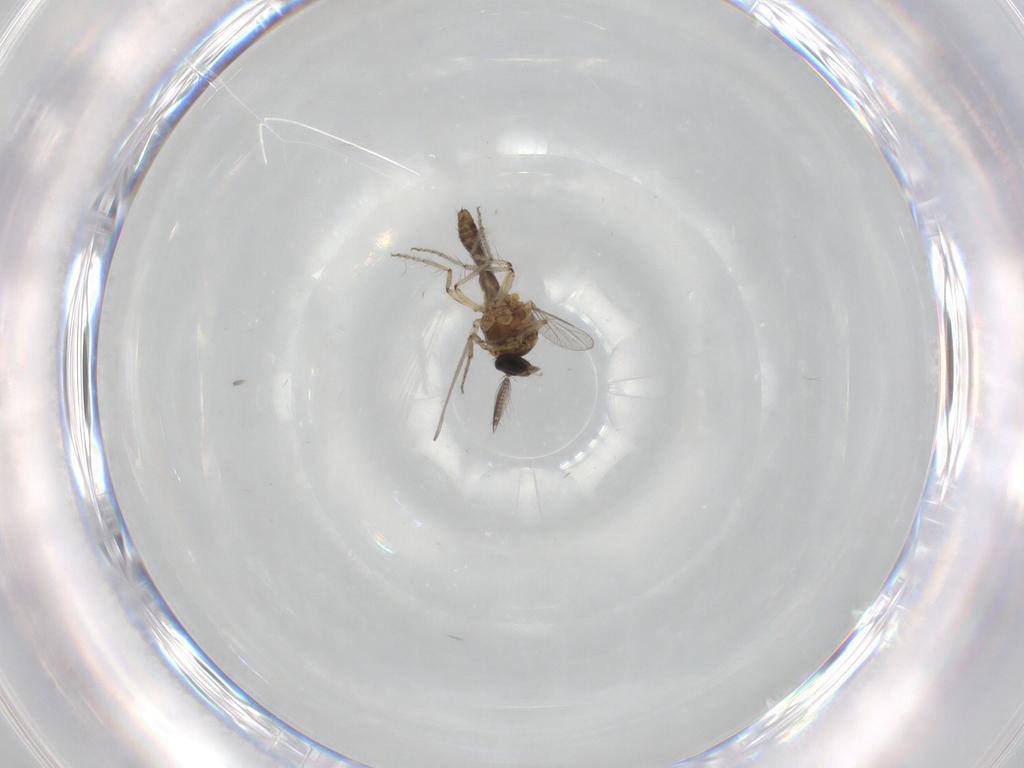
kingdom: Animalia
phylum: Arthropoda
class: Insecta
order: Diptera
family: Ceratopogonidae
